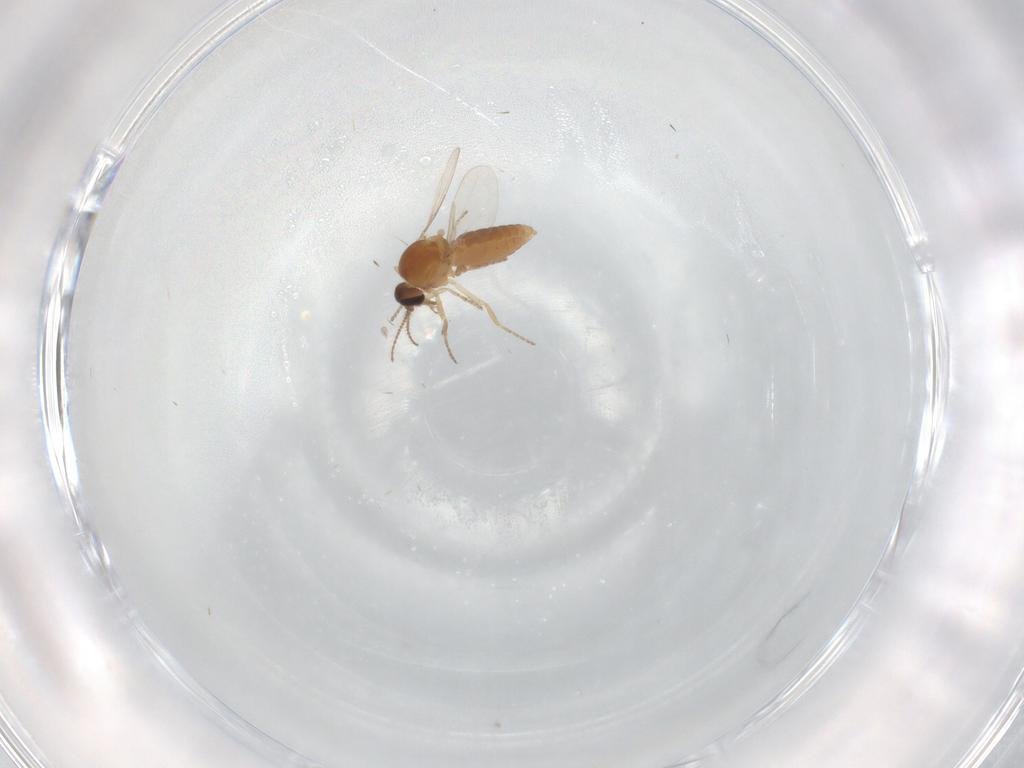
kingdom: Animalia
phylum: Arthropoda
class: Insecta
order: Diptera
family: Ceratopogonidae
